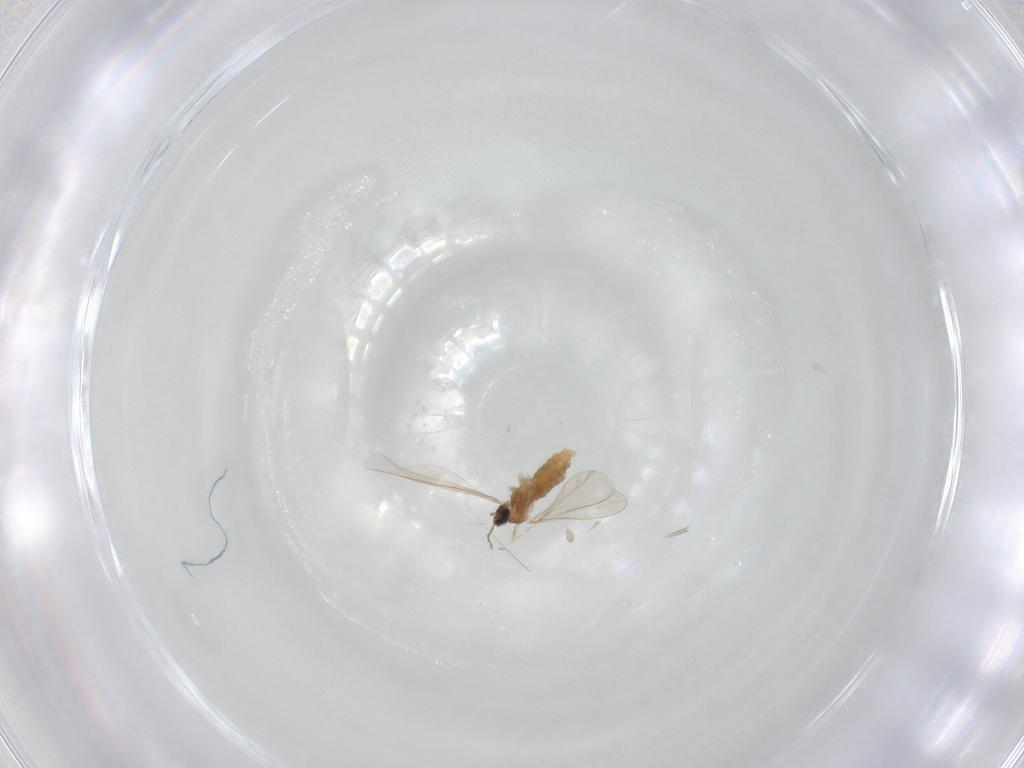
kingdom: Animalia
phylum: Arthropoda
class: Insecta
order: Diptera
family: Cecidomyiidae
